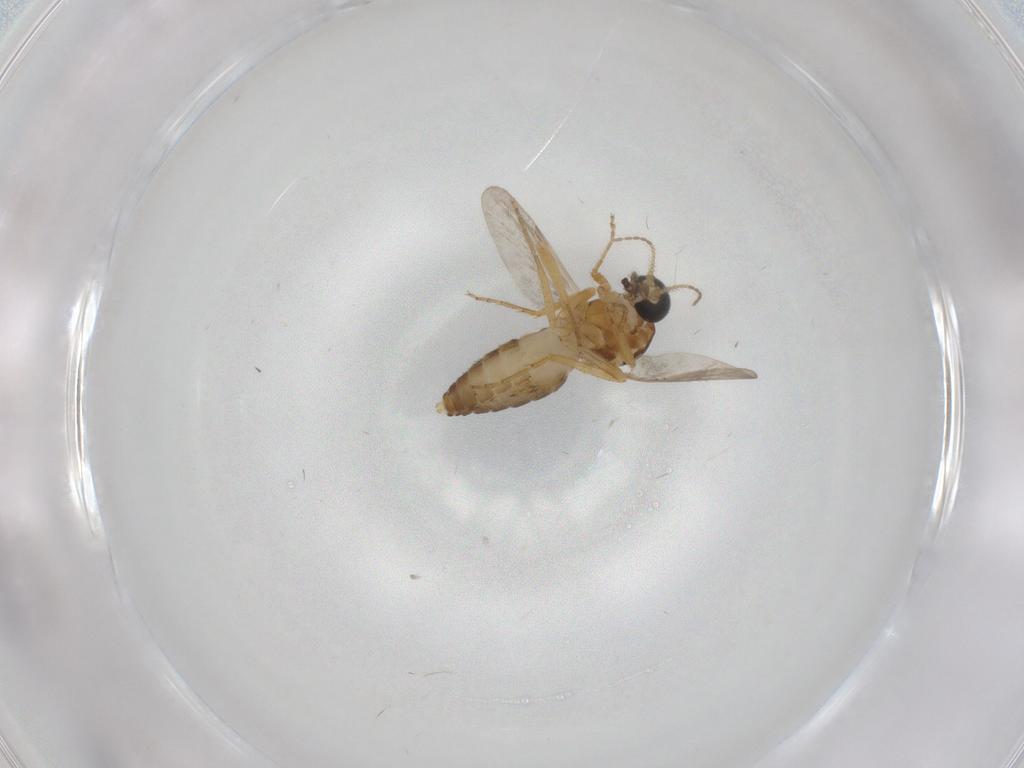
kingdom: Animalia
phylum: Arthropoda
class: Insecta
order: Diptera
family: Ceratopogonidae
